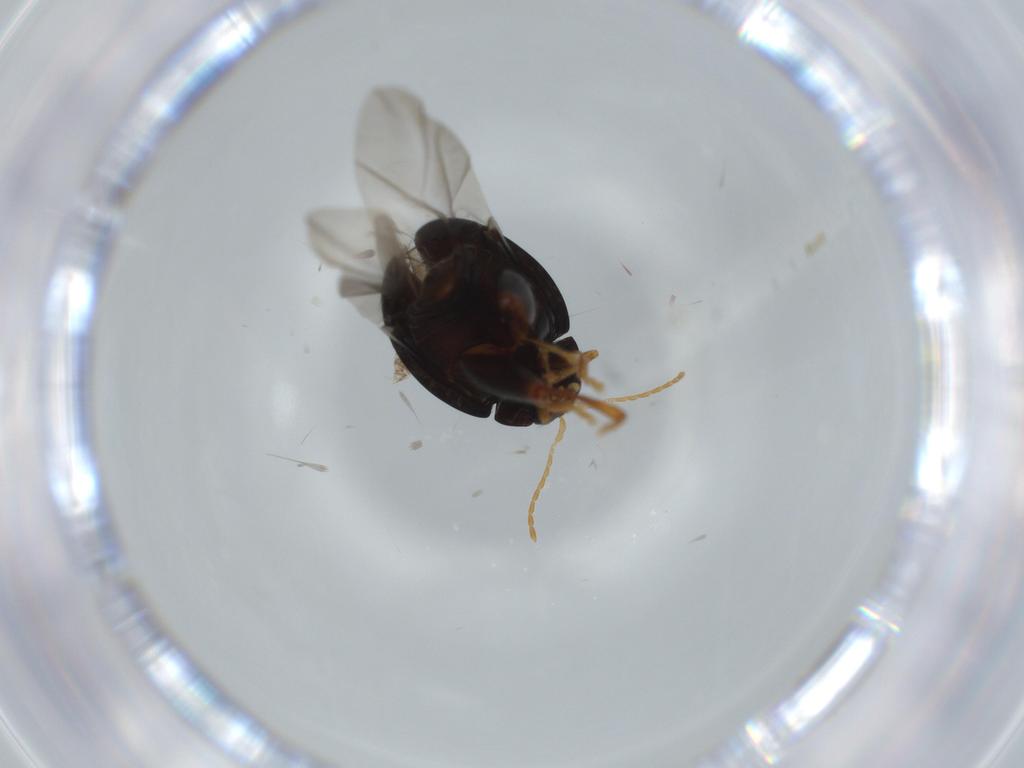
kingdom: Animalia
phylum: Arthropoda
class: Insecta
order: Coleoptera
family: Chrysomelidae
